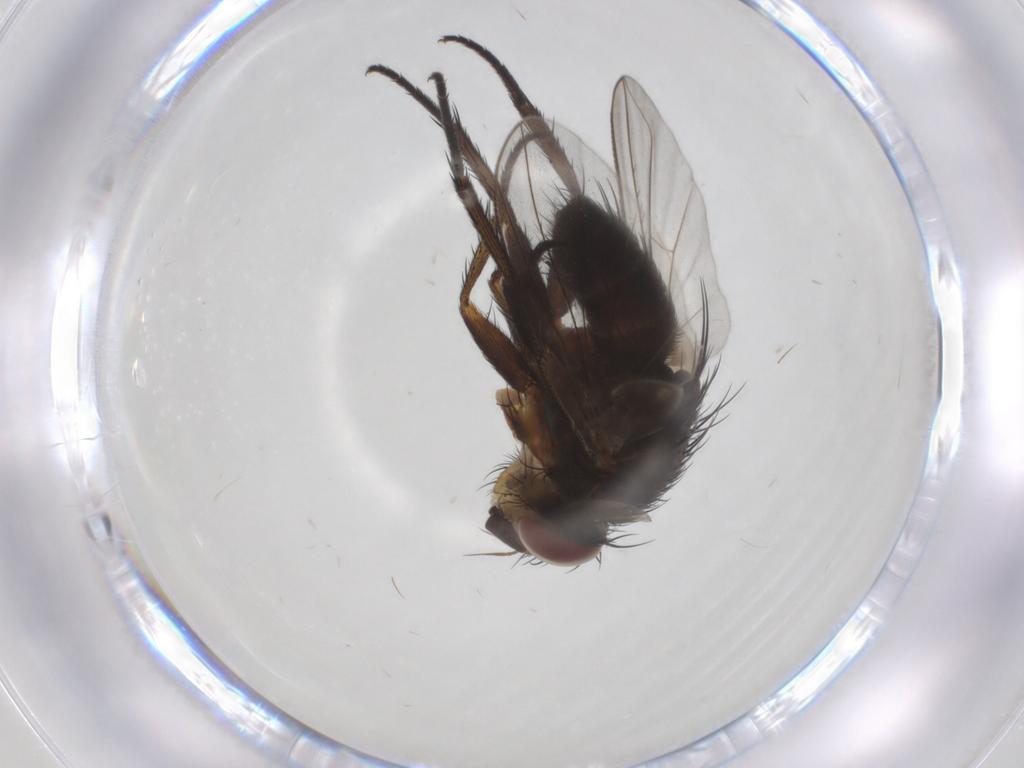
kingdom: Animalia
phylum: Arthropoda
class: Insecta
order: Diptera
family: Tachinidae
